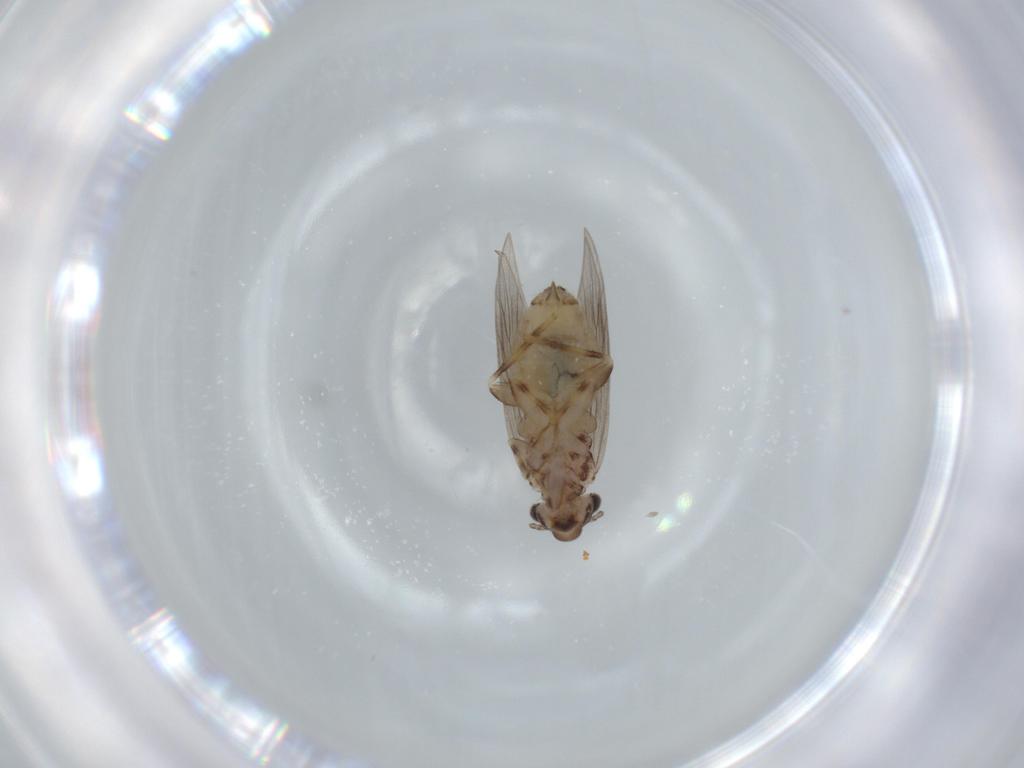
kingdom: Animalia
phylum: Arthropoda
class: Insecta
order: Psocodea
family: Lepidopsocidae
